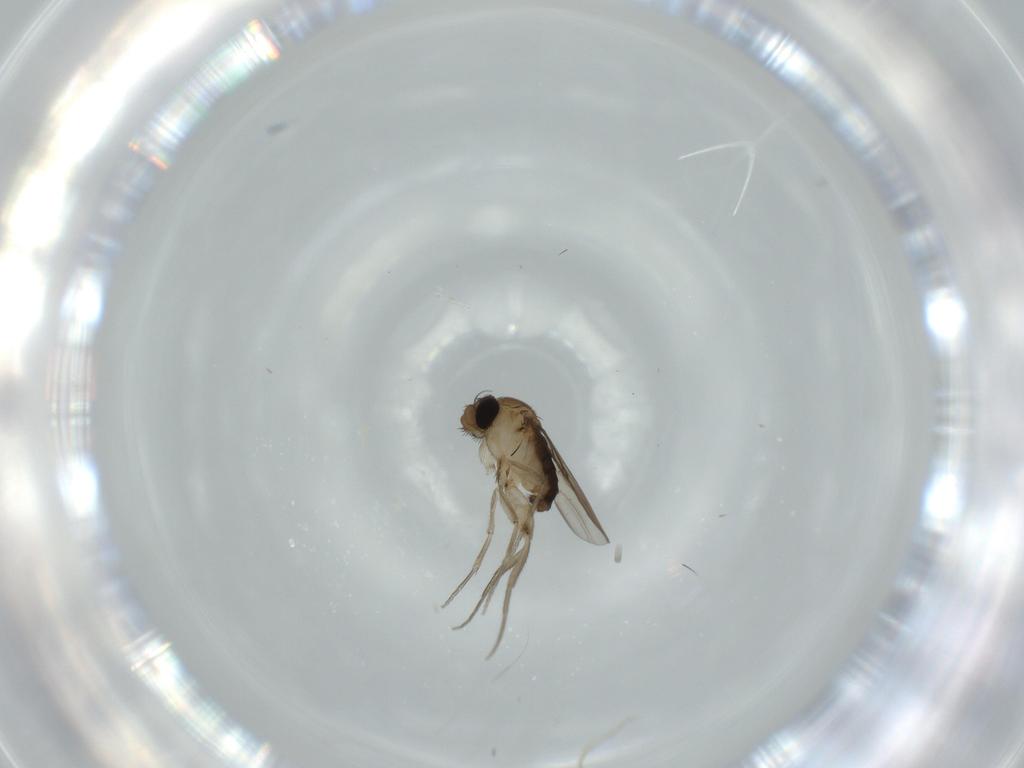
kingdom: Animalia
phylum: Arthropoda
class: Insecta
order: Diptera
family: Phoridae
